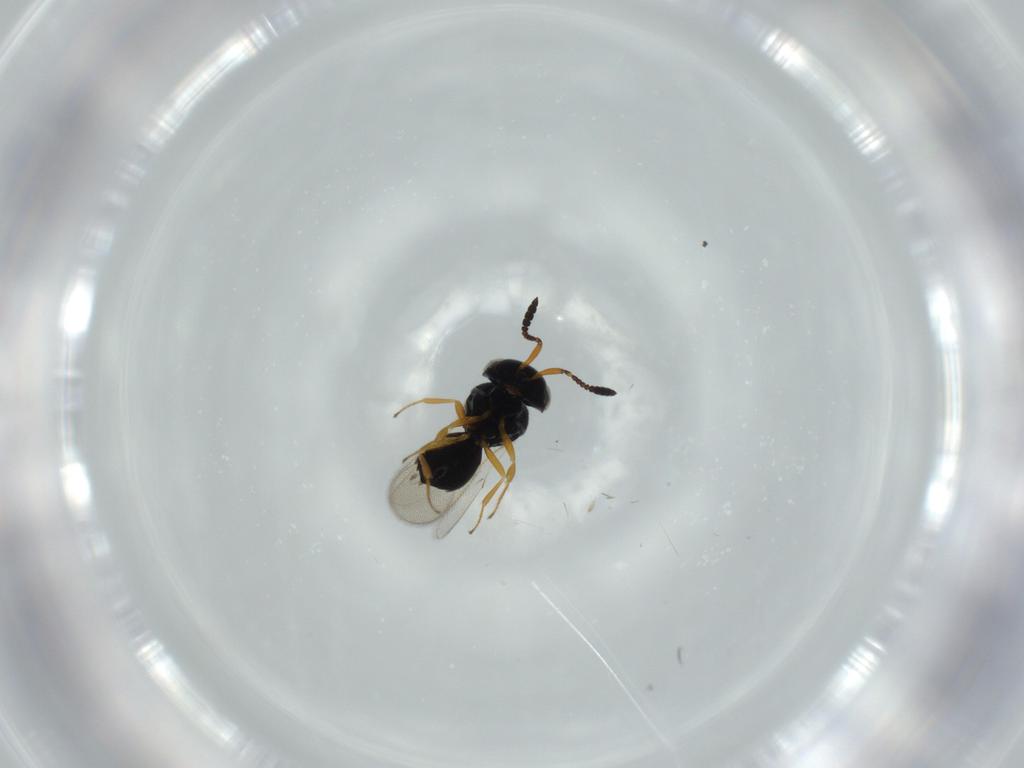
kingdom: Animalia
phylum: Arthropoda
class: Insecta
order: Hymenoptera
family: Scelionidae
